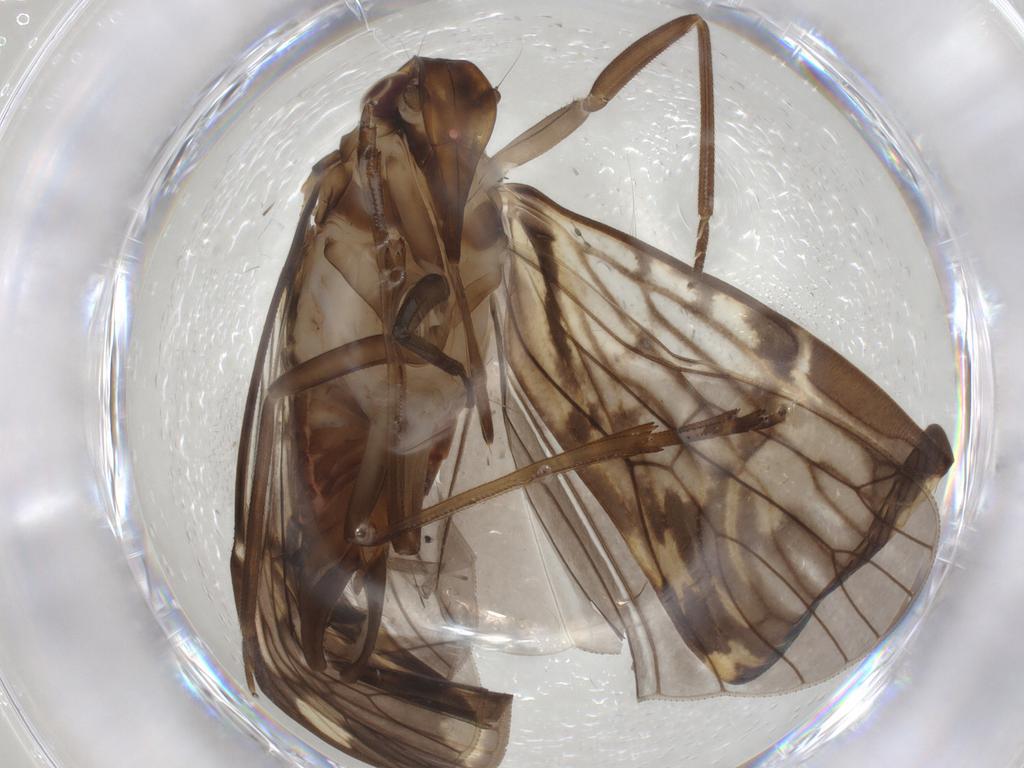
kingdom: Animalia
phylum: Arthropoda
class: Insecta
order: Hemiptera
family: Cixiidae
